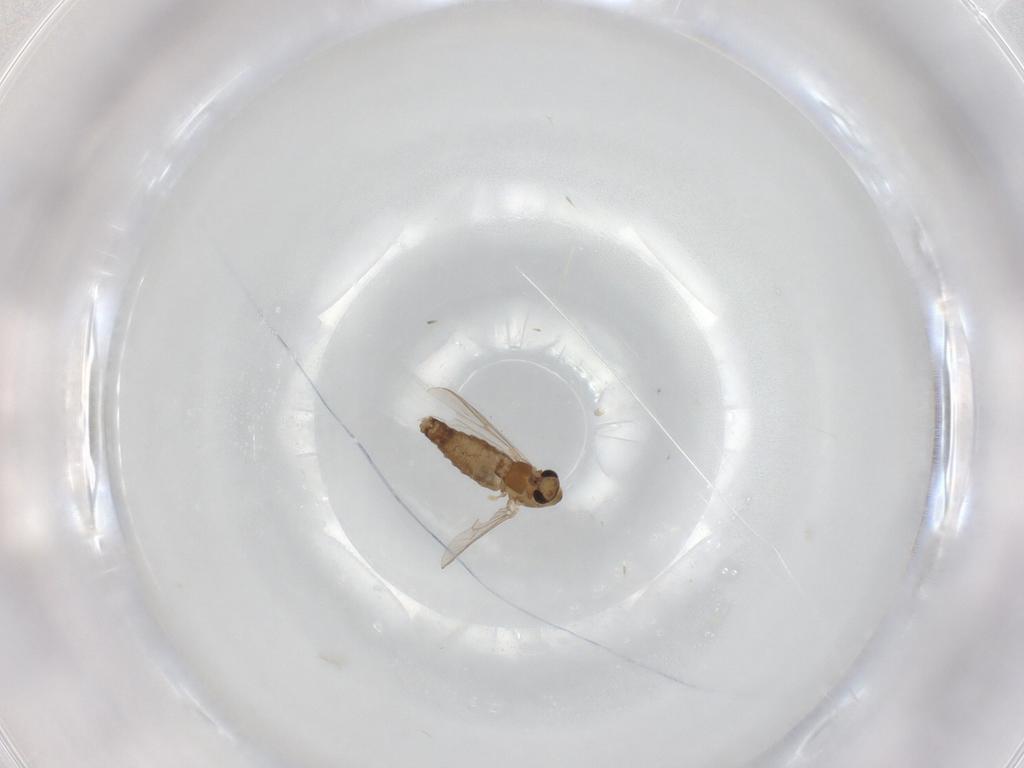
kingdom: Animalia
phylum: Arthropoda
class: Insecta
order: Diptera
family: Chironomidae
